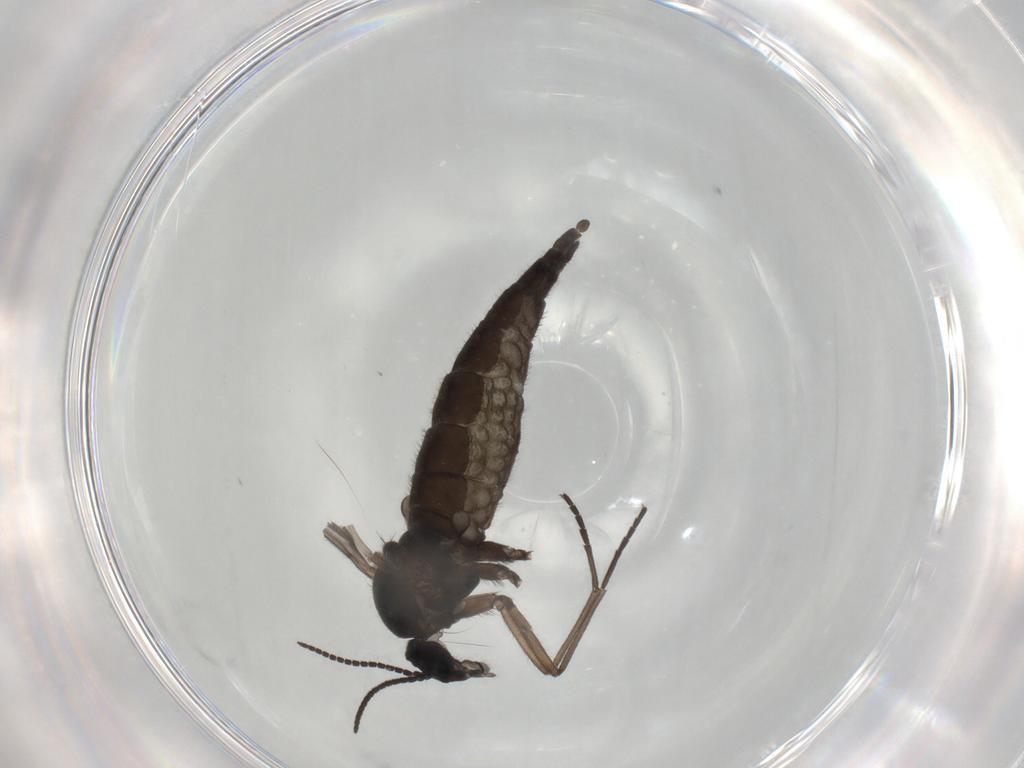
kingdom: Animalia
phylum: Arthropoda
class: Insecta
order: Diptera
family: Sciaridae
